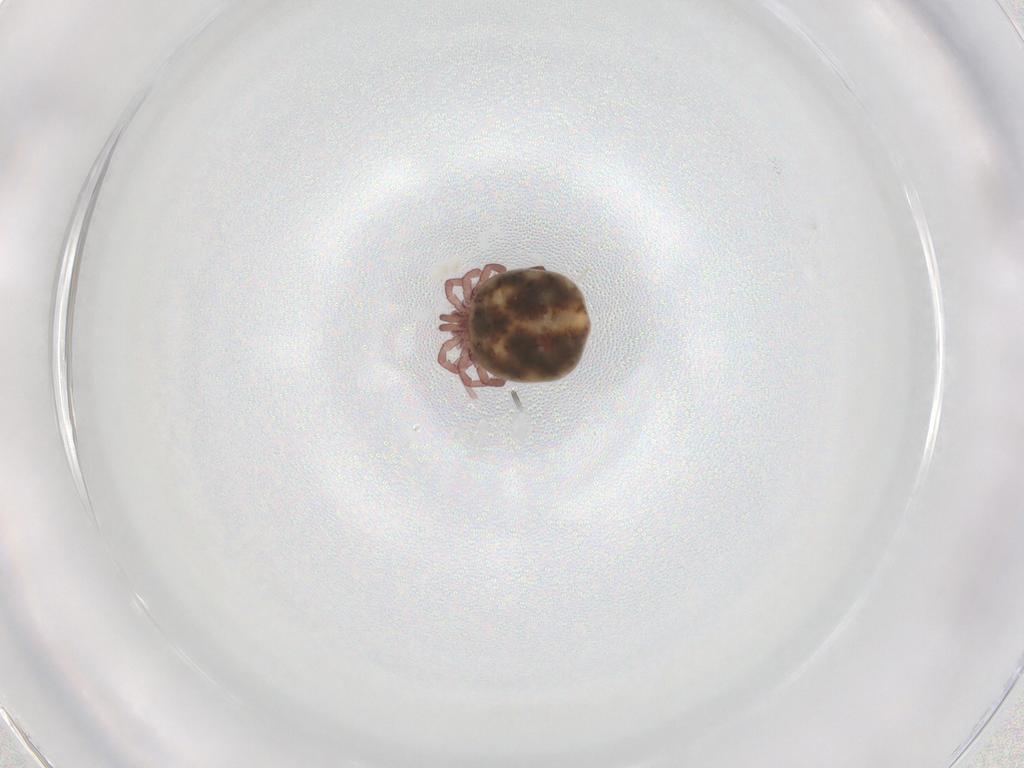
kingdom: Animalia
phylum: Arthropoda
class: Arachnida
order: Trombidiformes
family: Lebertiidae
